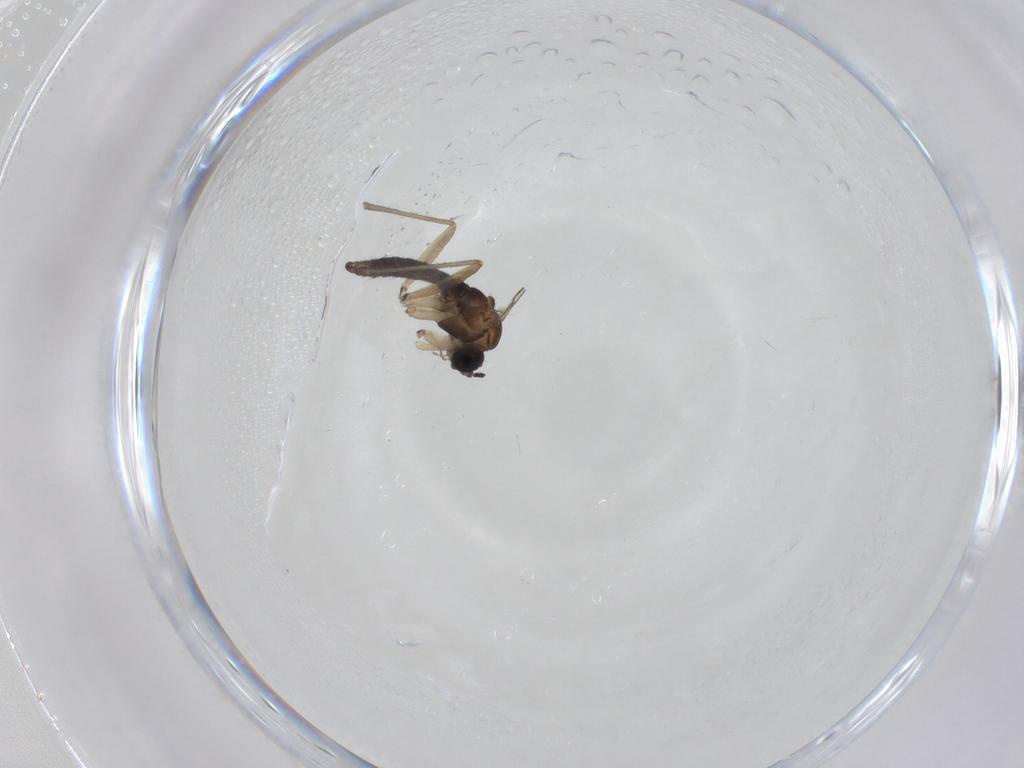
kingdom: Animalia
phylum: Arthropoda
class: Insecta
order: Diptera
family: Sciaridae
